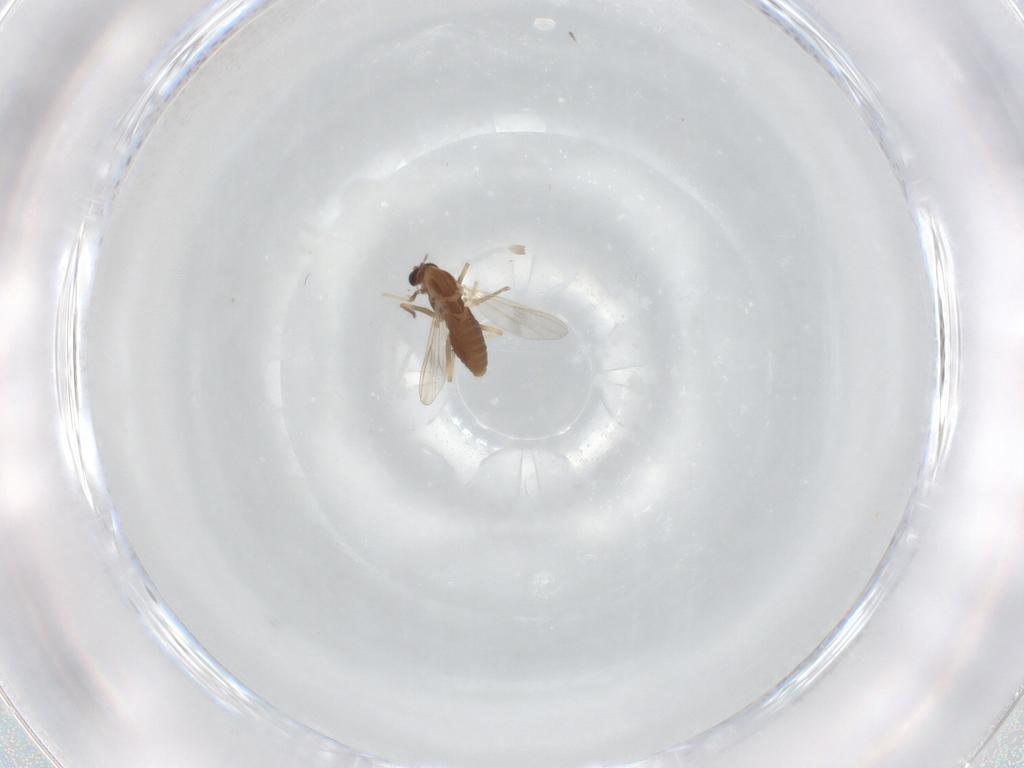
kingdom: Animalia
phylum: Arthropoda
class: Insecta
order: Diptera
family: Chironomidae
